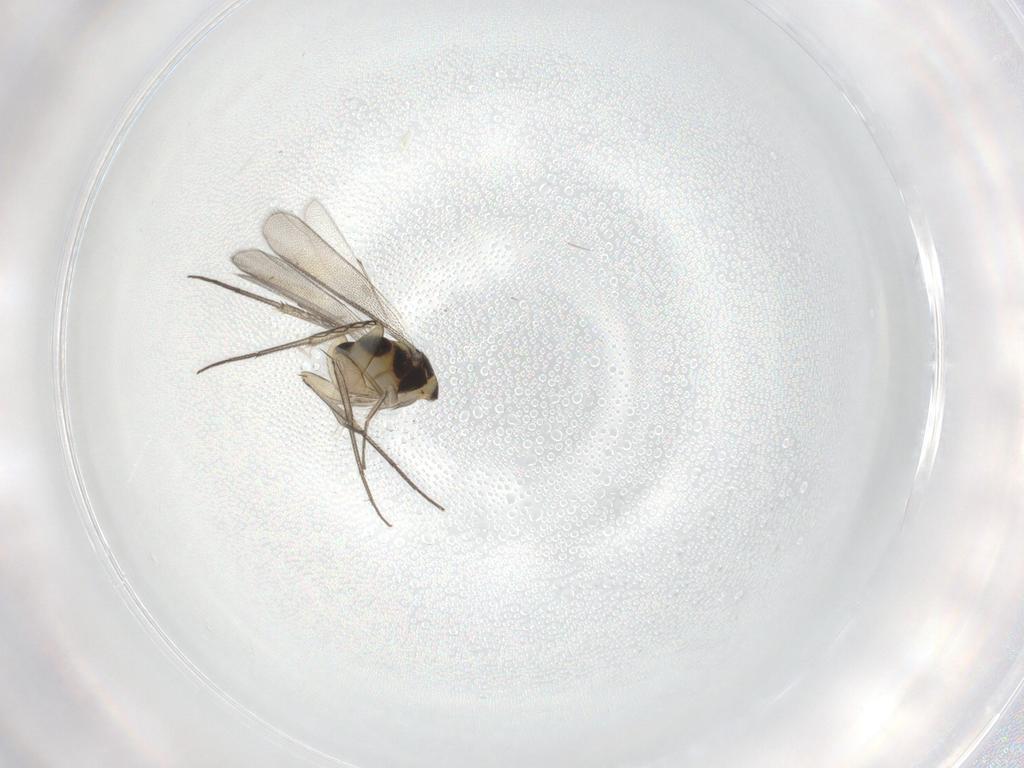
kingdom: Animalia
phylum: Arthropoda
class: Insecta
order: Hymenoptera
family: Eulophidae
